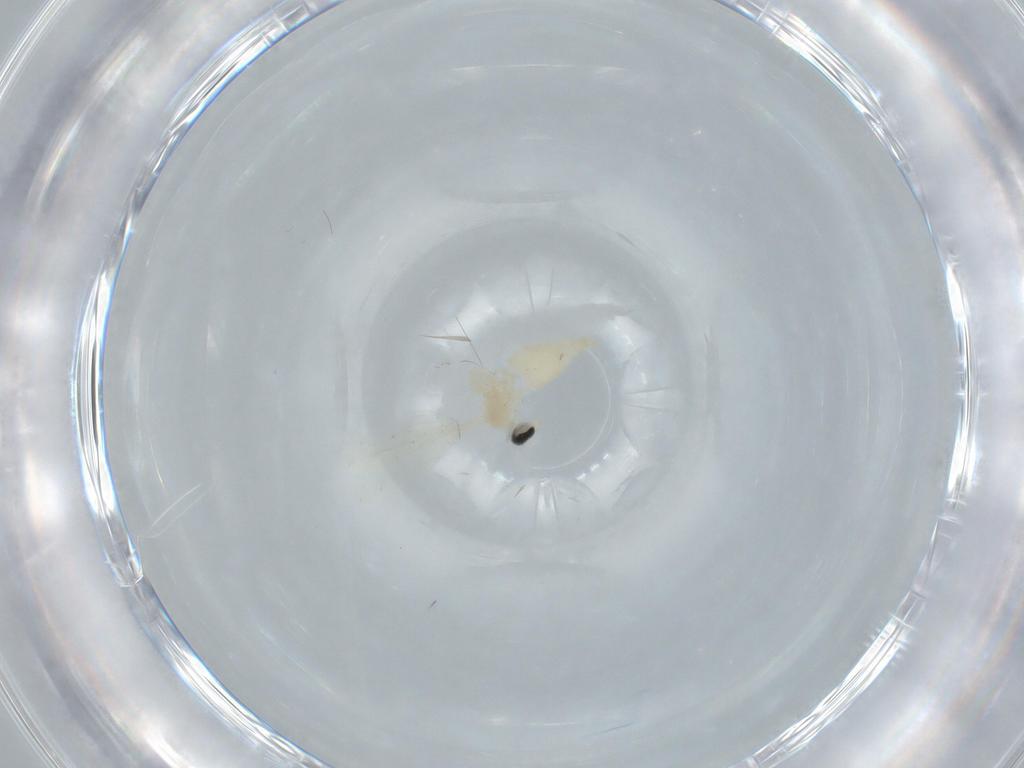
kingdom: Animalia
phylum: Arthropoda
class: Insecta
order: Diptera
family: Cecidomyiidae
